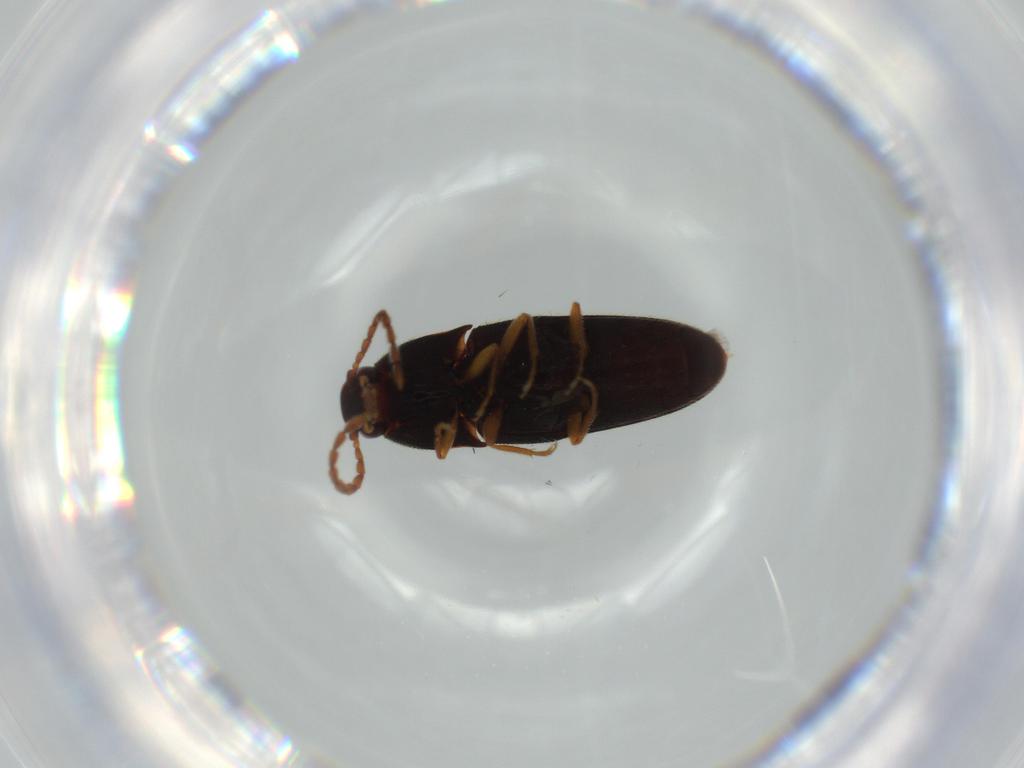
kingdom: Animalia
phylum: Arthropoda
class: Insecta
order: Coleoptera
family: Elateridae
